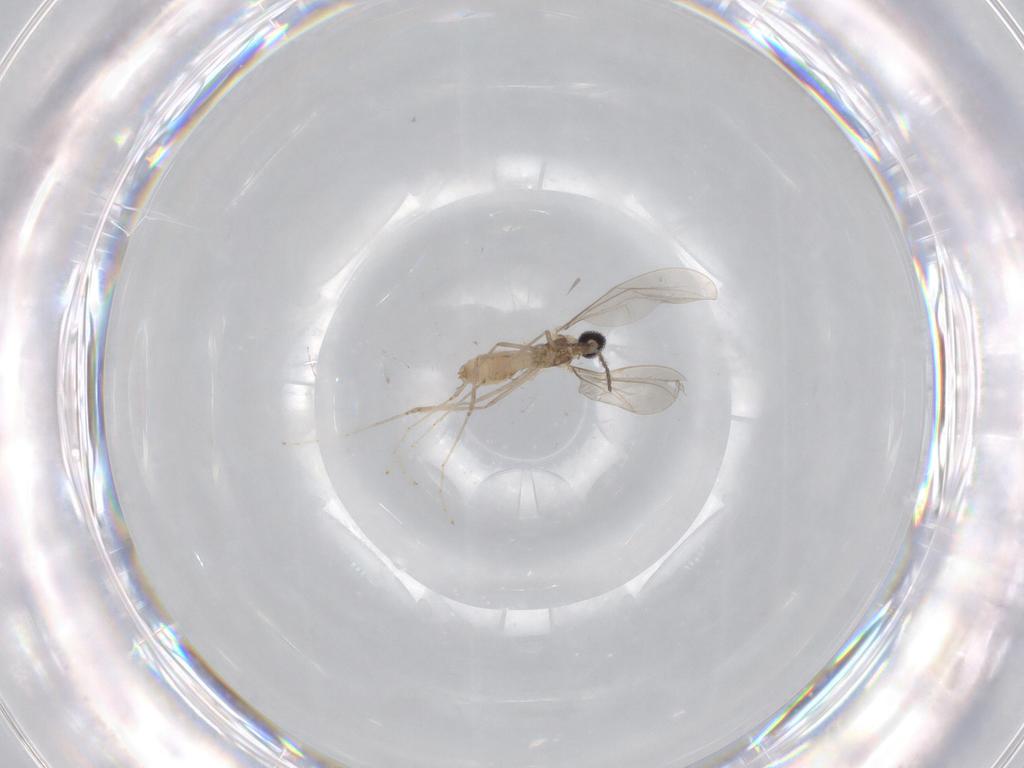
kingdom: Animalia
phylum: Arthropoda
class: Insecta
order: Diptera
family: Cecidomyiidae
